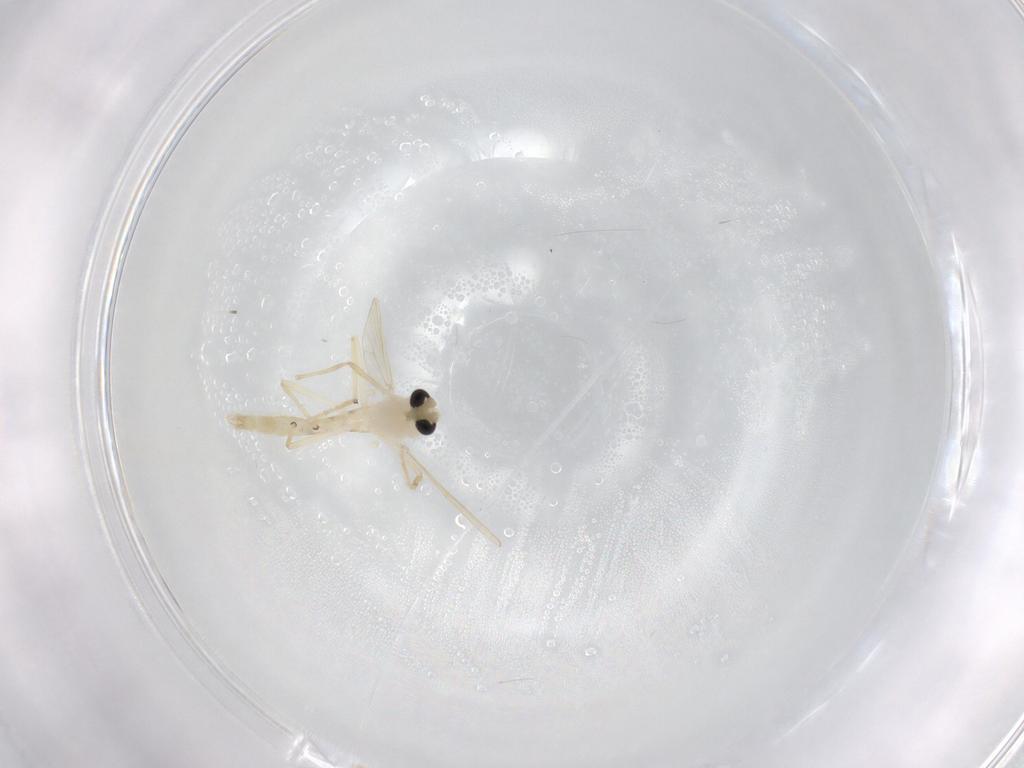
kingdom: Animalia
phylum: Arthropoda
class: Insecta
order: Diptera
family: Chironomidae
